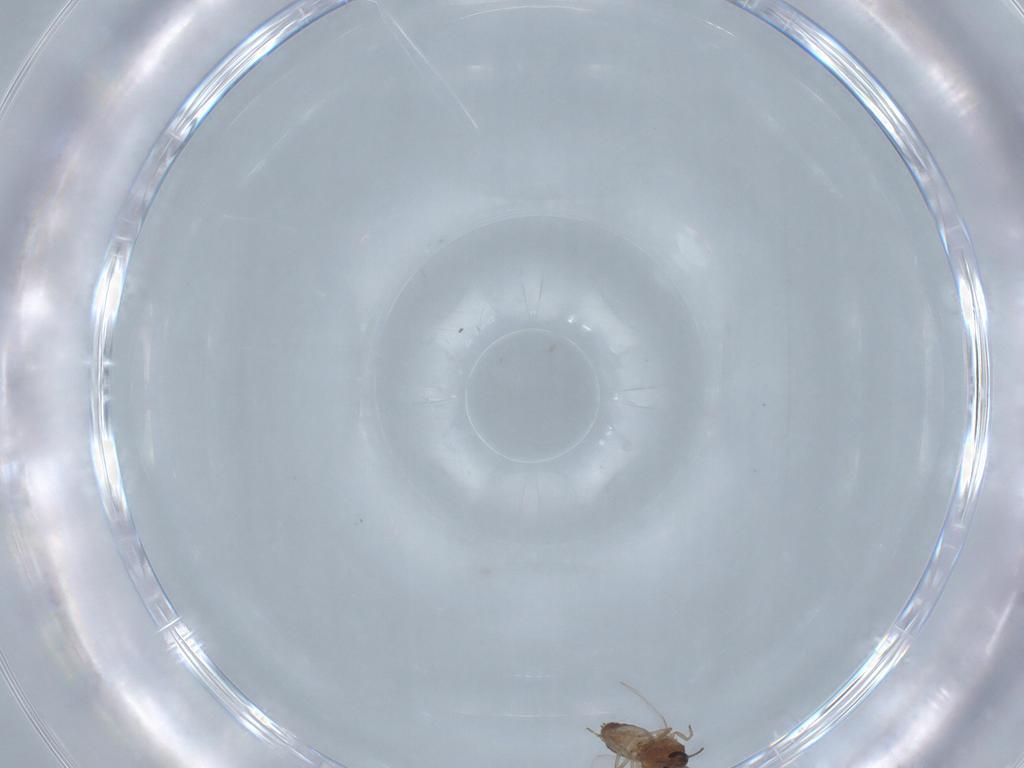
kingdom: Animalia
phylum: Arthropoda
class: Insecta
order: Diptera
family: Ceratopogonidae
